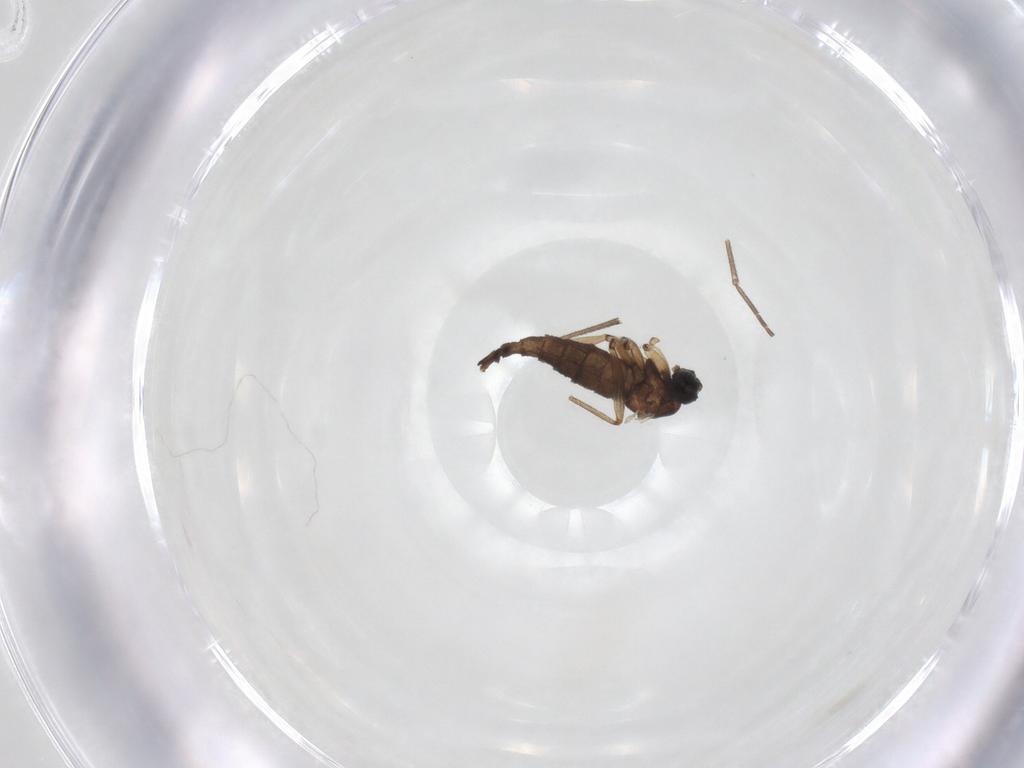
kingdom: Animalia
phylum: Arthropoda
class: Insecta
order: Diptera
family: Sciaridae
